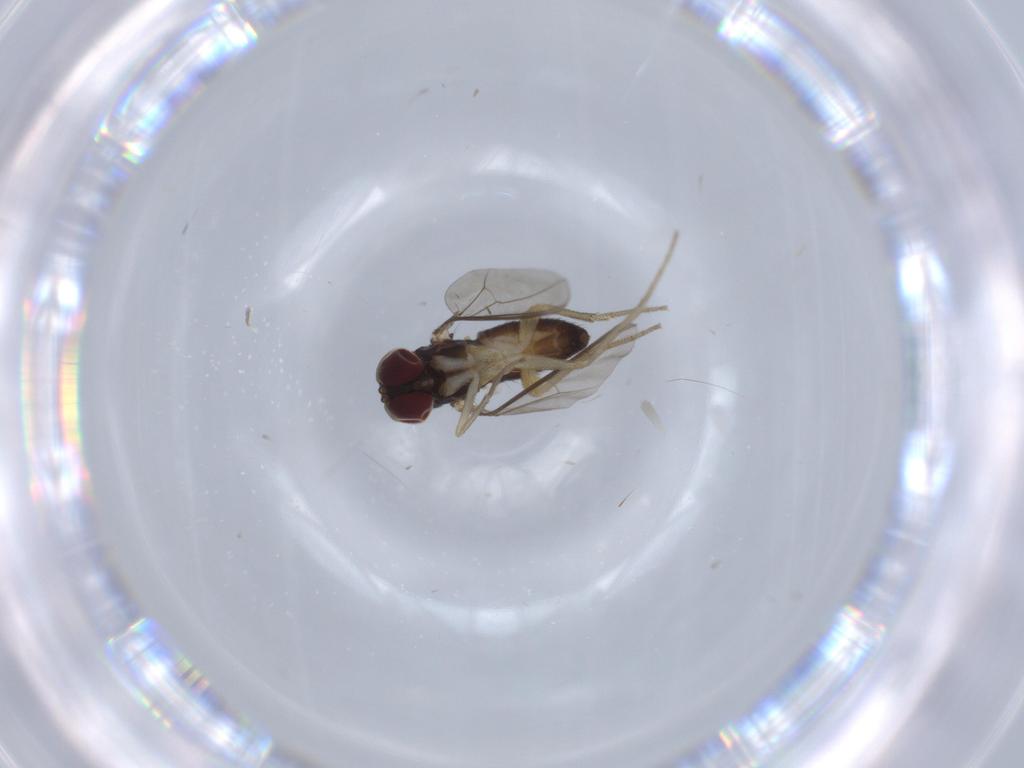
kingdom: Animalia
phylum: Arthropoda
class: Insecta
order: Diptera
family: Dolichopodidae
